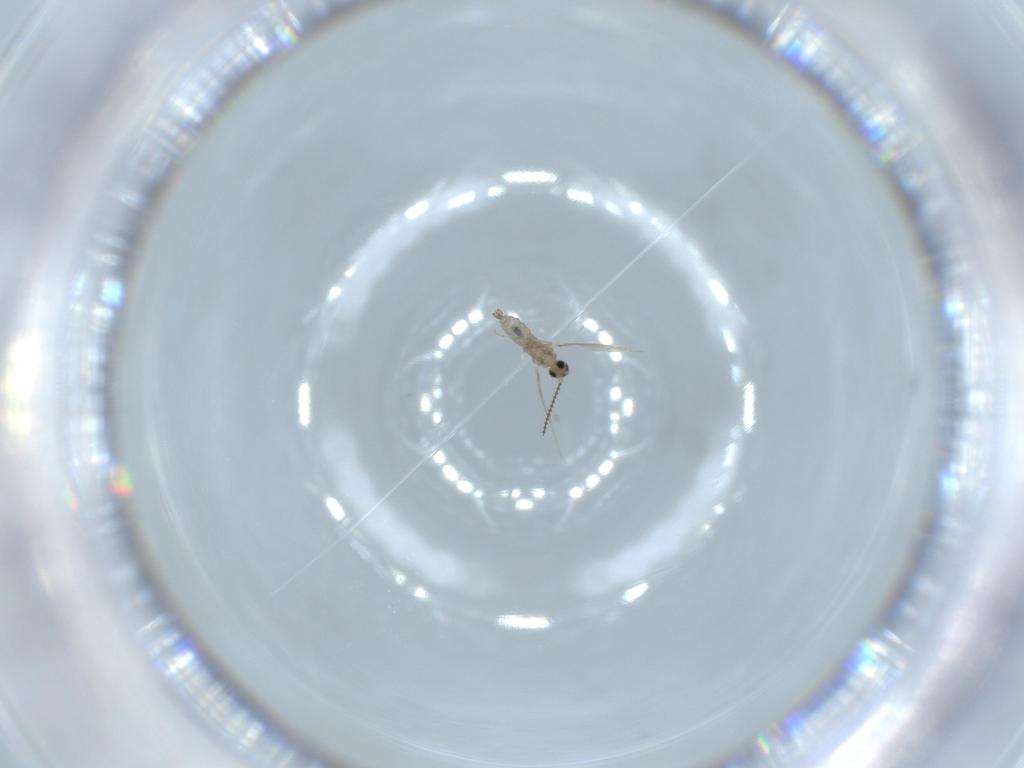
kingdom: Animalia
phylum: Arthropoda
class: Insecta
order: Diptera
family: Cecidomyiidae
